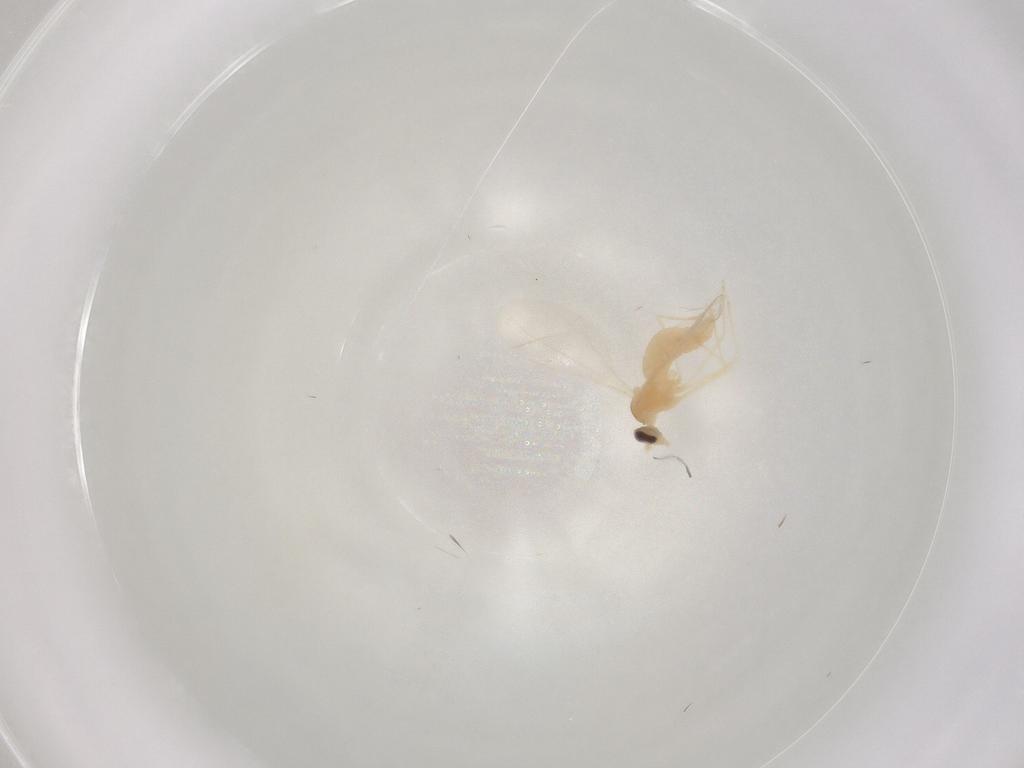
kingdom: Animalia
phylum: Arthropoda
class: Insecta
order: Diptera
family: Cecidomyiidae
